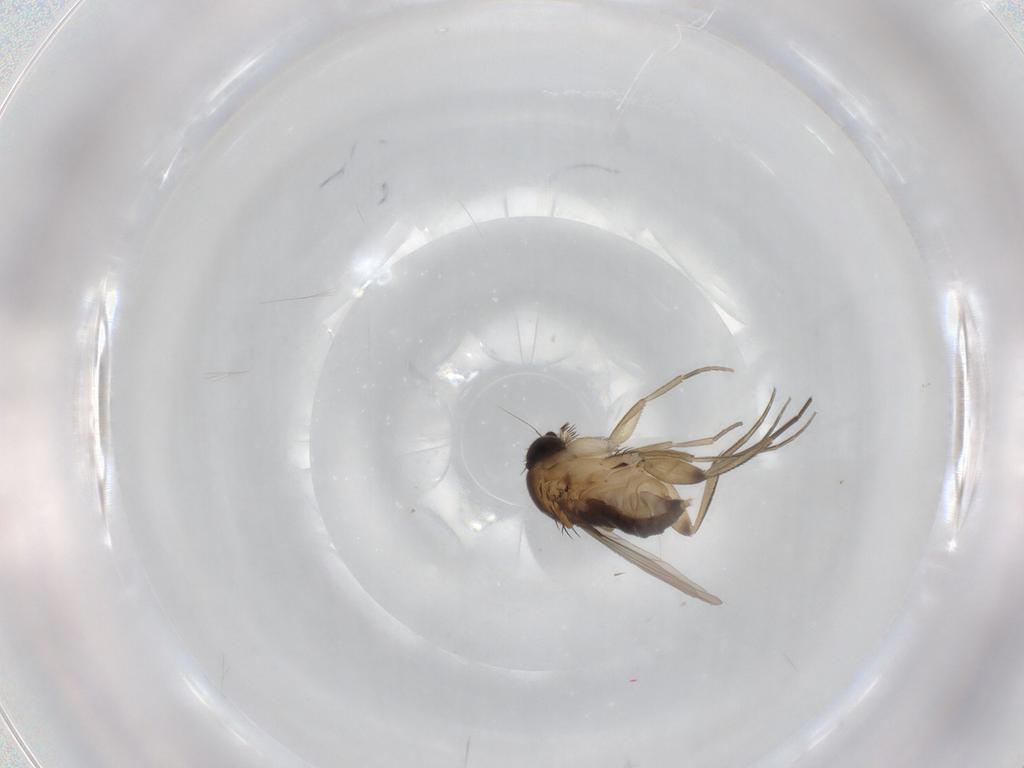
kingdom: Animalia
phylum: Arthropoda
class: Insecta
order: Diptera
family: Phoridae
